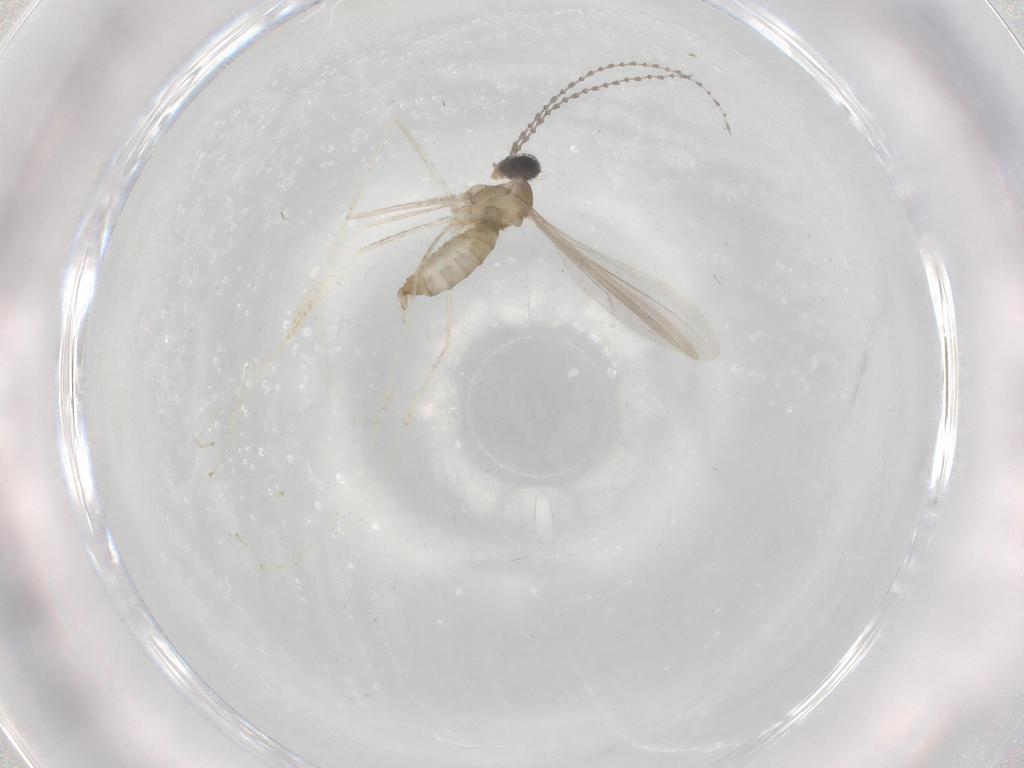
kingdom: Animalia
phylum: Arthropoda
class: Insecta
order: Diptera
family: Cecidomyiidae
